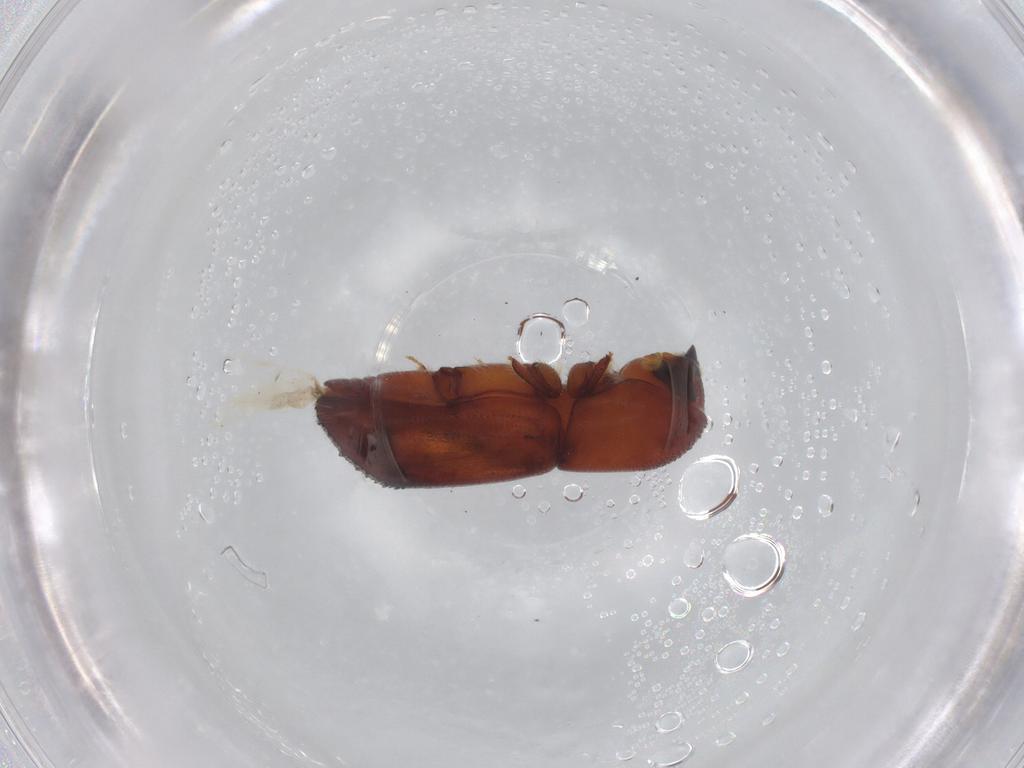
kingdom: Animalia
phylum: Arthropoda
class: Insecta
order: Coleoptera
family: Curculionidae
